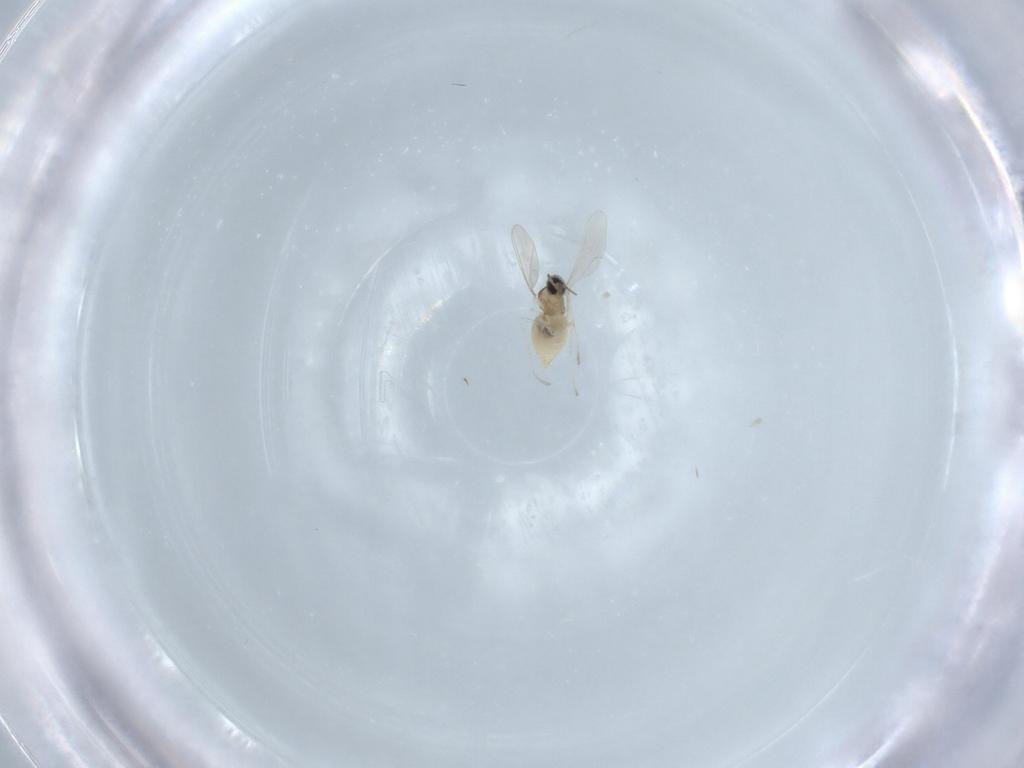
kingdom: Animalia
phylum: Arthropoda
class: Insecta
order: Diptera
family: Cecidomyiidae
